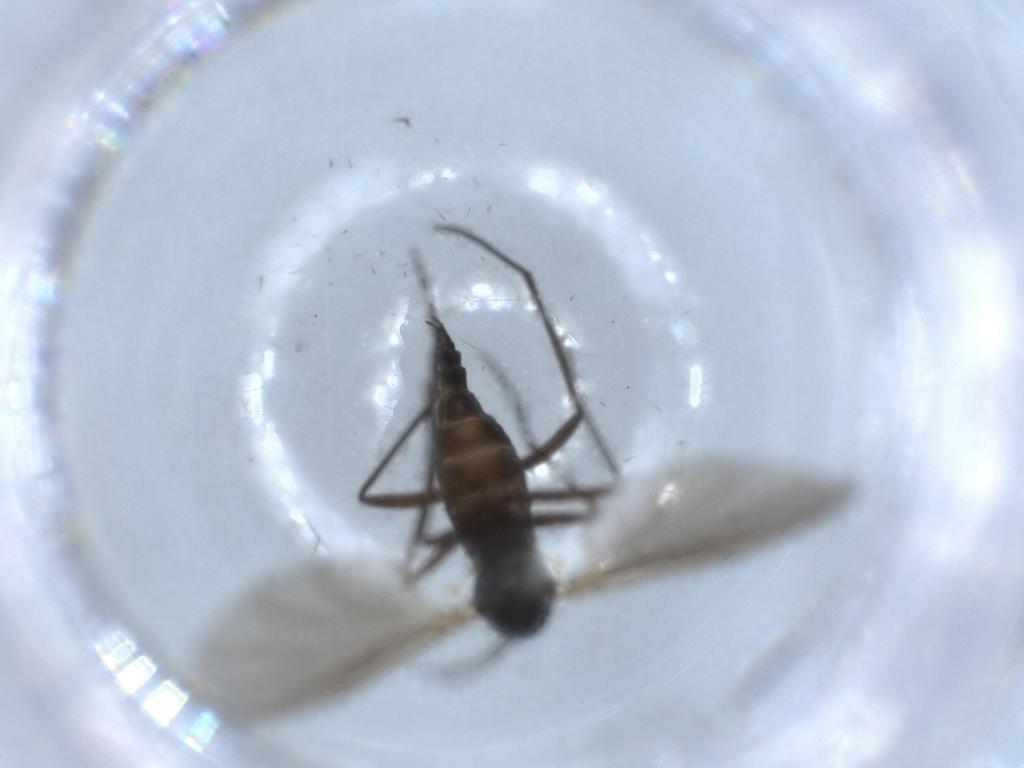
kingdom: Animalia
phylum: Arthropoda
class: Insecta
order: Diptera
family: Sciaridae
